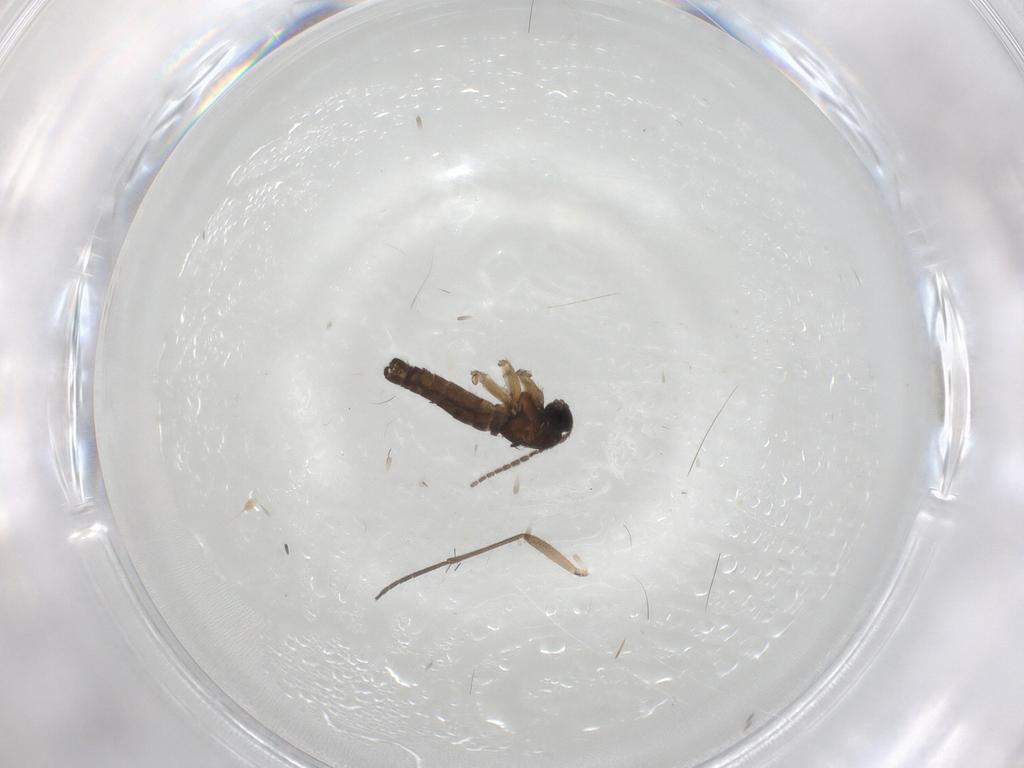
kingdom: Animalia
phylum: Arthropoda
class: Insecta
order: Diptera
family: Sciaridae
